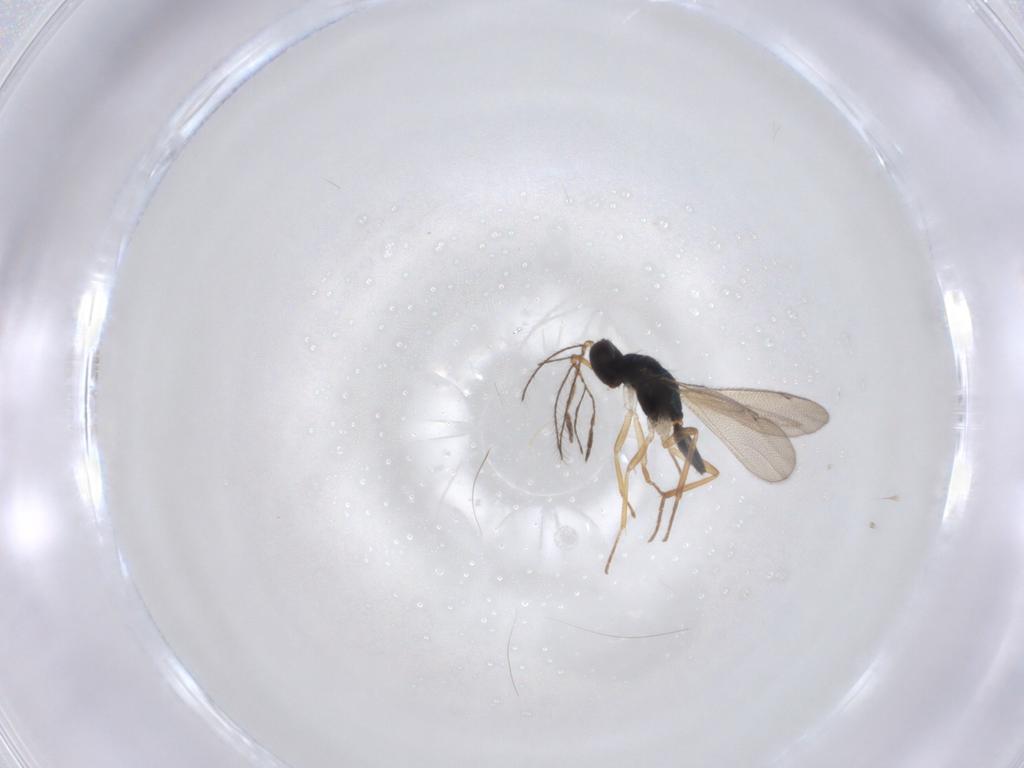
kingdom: Animalia
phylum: Arthropoda
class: Insecta
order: Hymenoptera
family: Eulophidae
